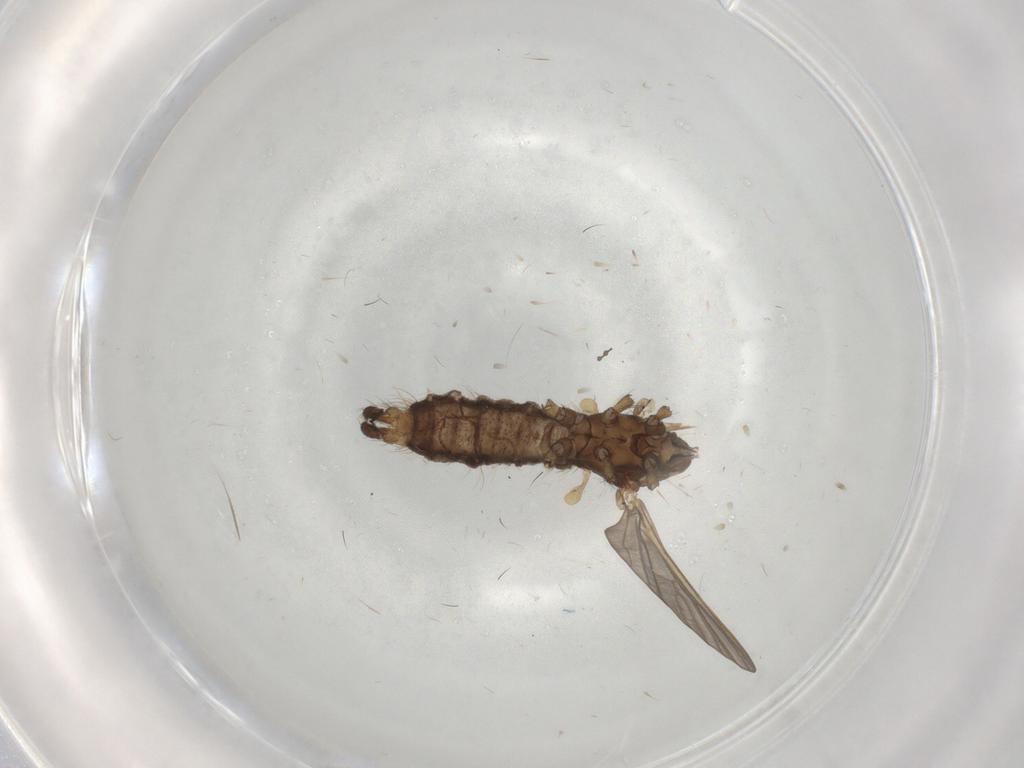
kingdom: Animalia
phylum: Arthropoda
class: Insecta
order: Diptera
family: Limoniidae
